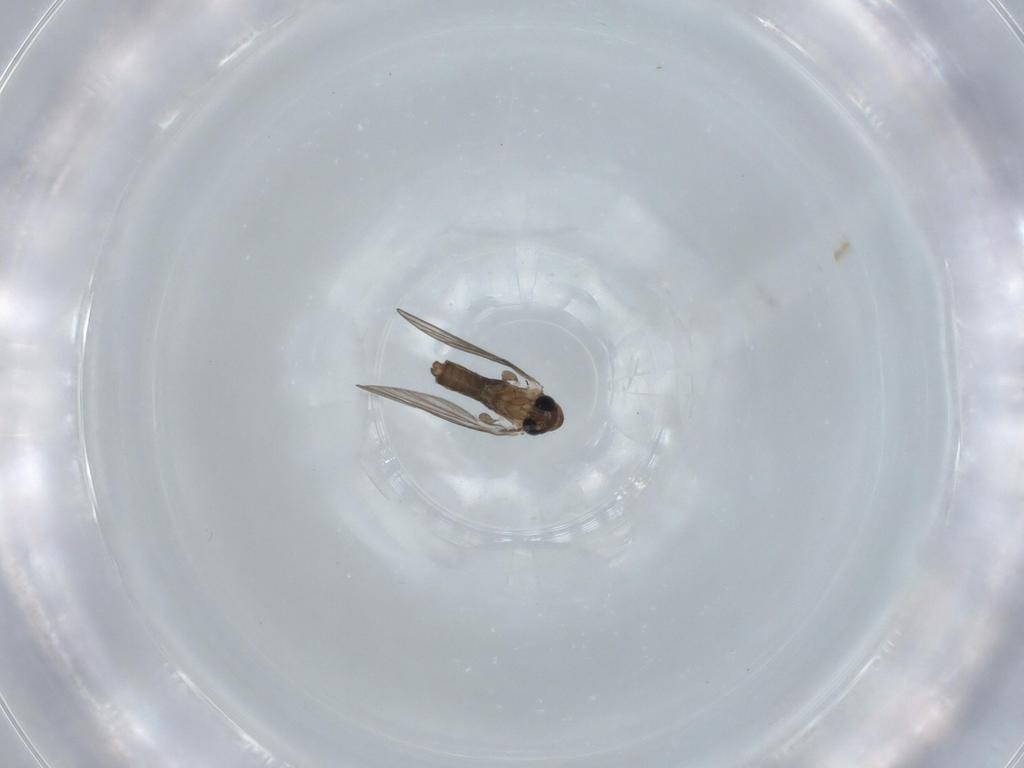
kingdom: Animalia
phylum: Arthropoda
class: Insecta
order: Diptera
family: Psychodidae
